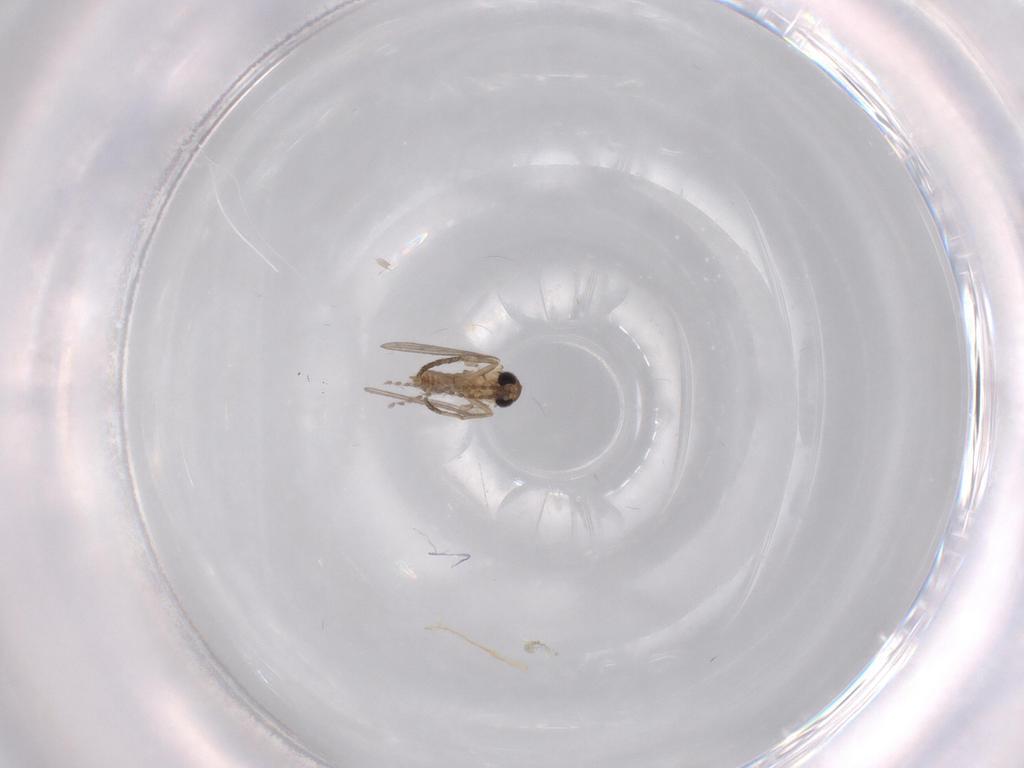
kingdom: Animalia
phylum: Arthropoda
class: Insecta
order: Diptera
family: Psychodidae
